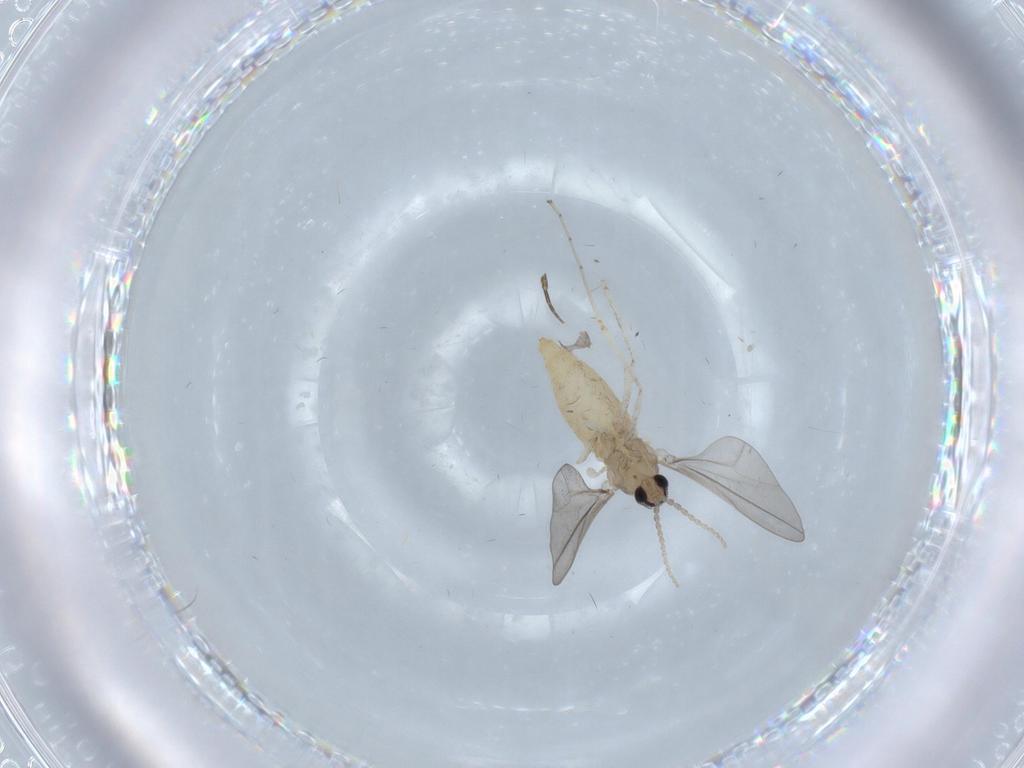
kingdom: Animalia
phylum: Arthropoda
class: Insecta
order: Diptera
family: Cecidomyiidae
